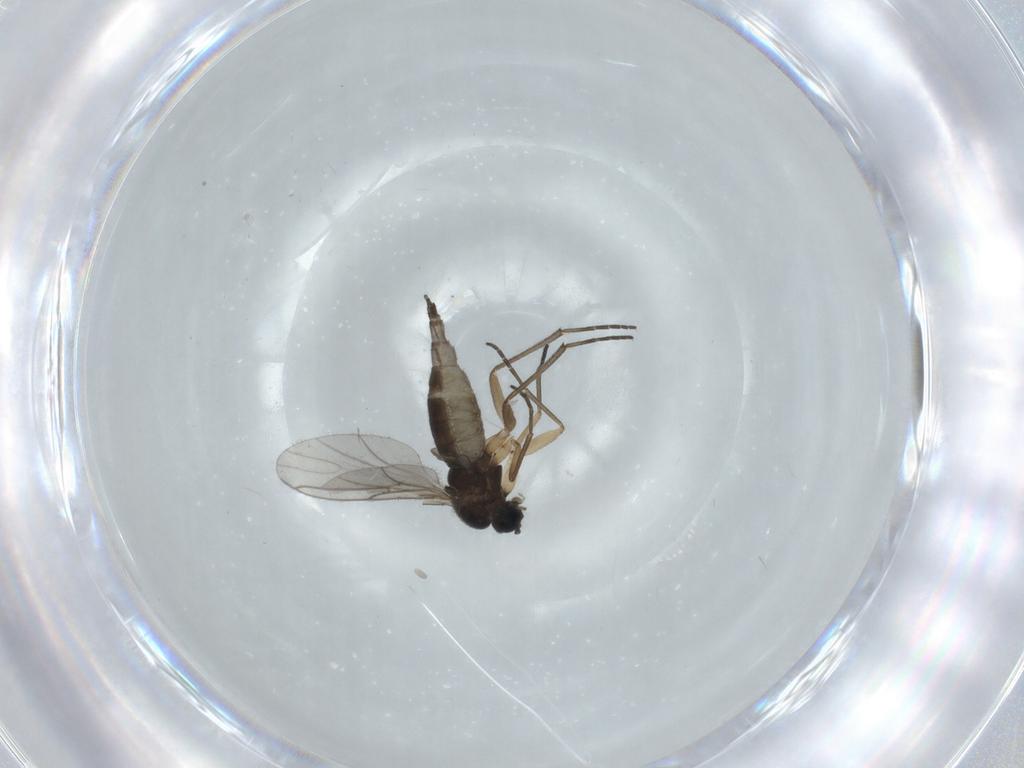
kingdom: Animalia
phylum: Arthropoda
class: Insecta
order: Diptera
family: Sciaridae
